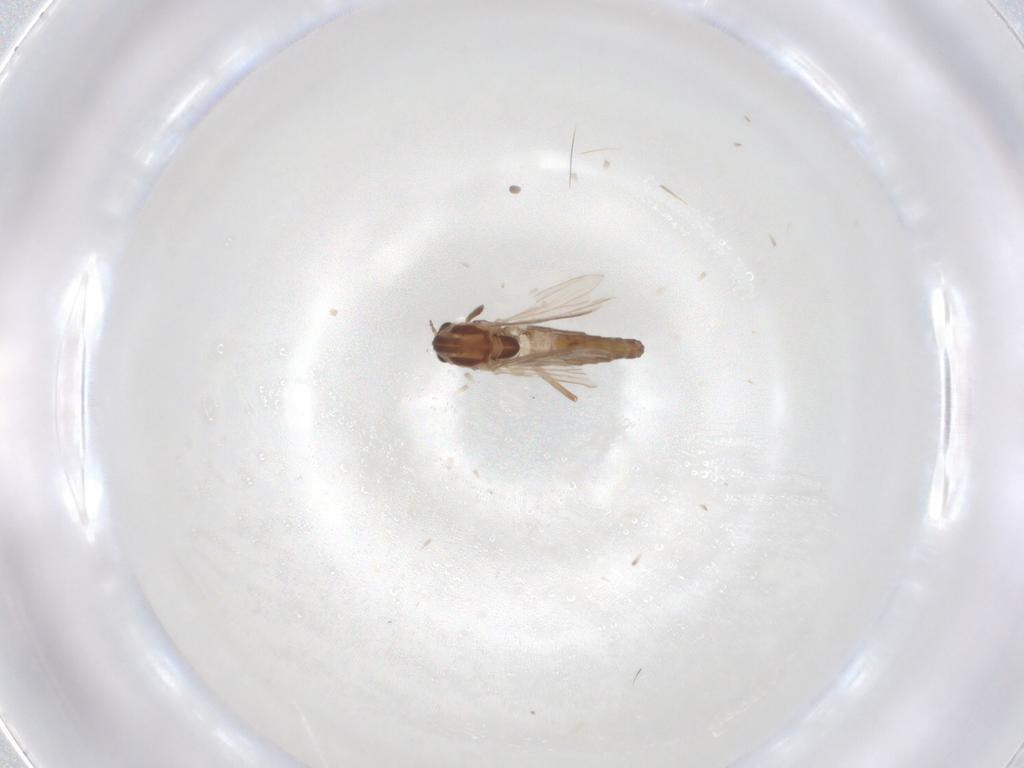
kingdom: Animalia
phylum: Arthropoda
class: Insecta
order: Diptera
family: Chironomidae
